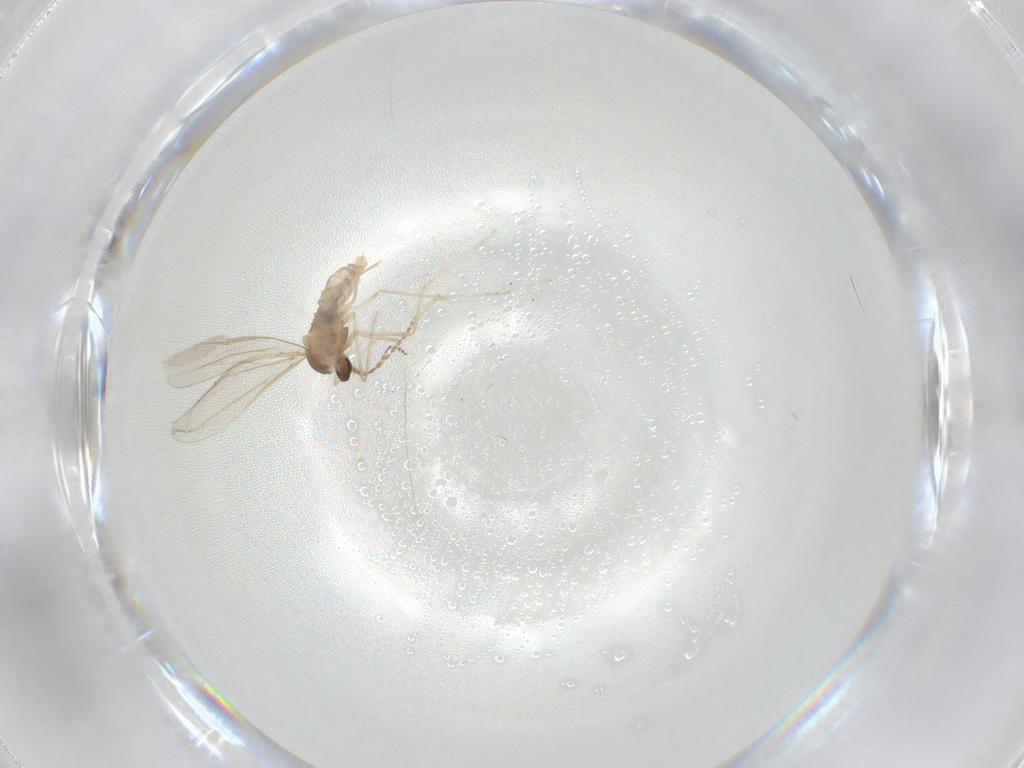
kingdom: Animalia
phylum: Arthropoda
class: Insecta
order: Diptera
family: Cecidomyiidae
